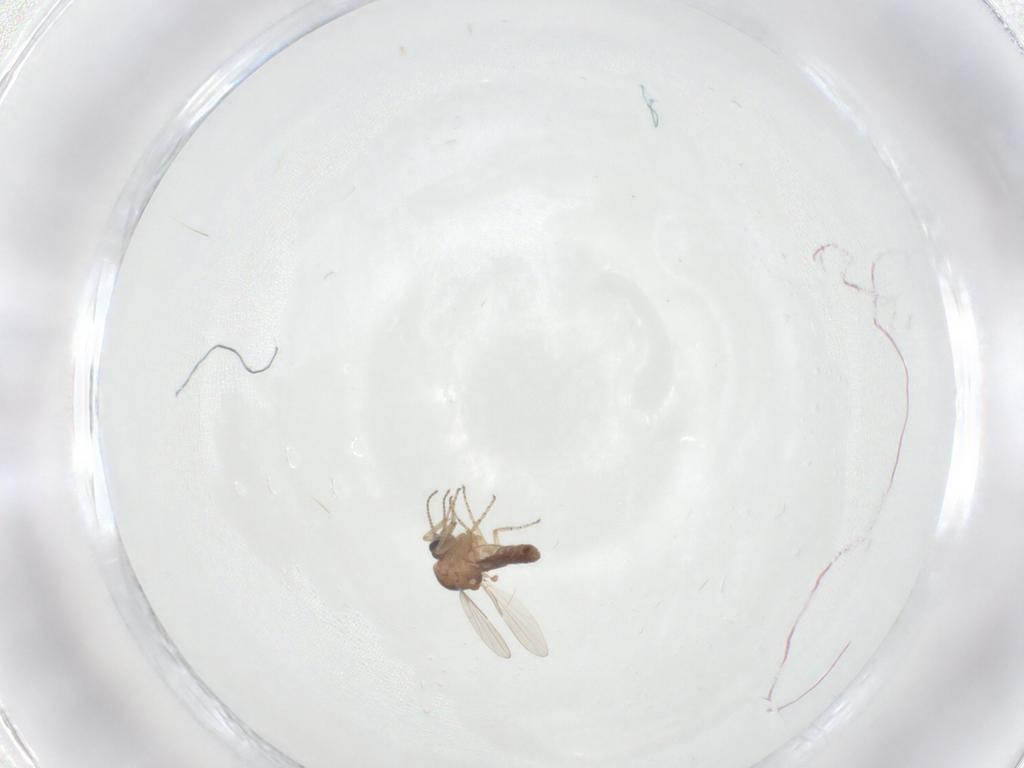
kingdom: Animalia
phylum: Arthropoda
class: Insecta
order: Diptera
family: Ceratopogonidae
